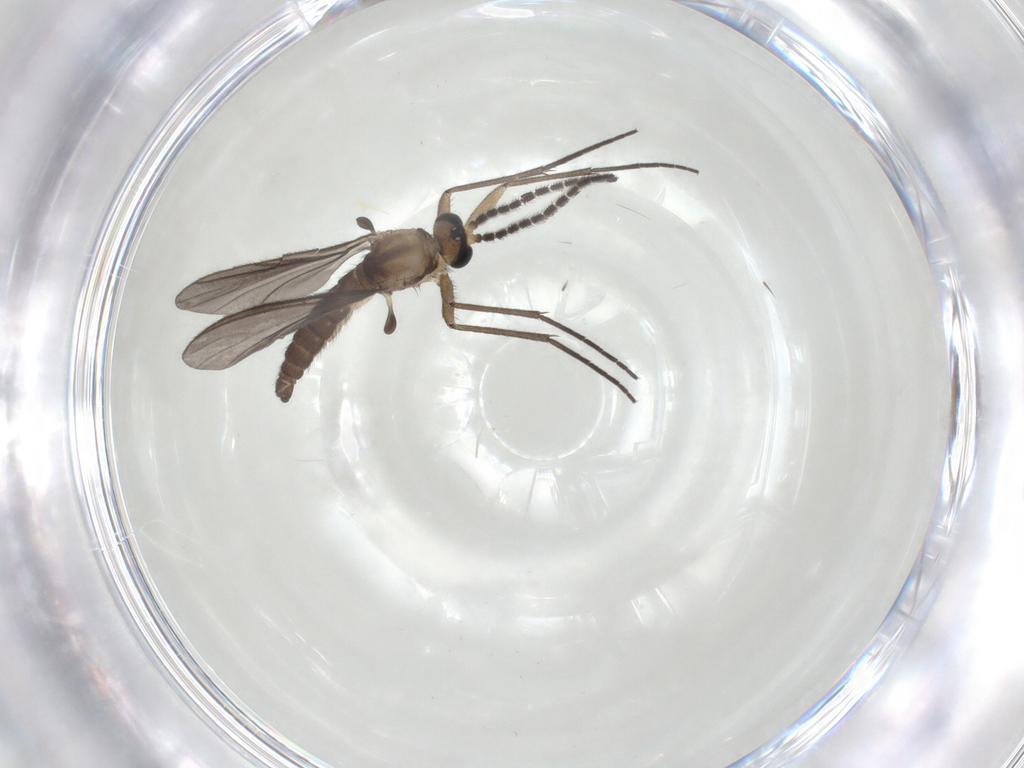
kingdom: Animalia
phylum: Arthropoda
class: Insecta
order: Diptera
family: Sciaridae
